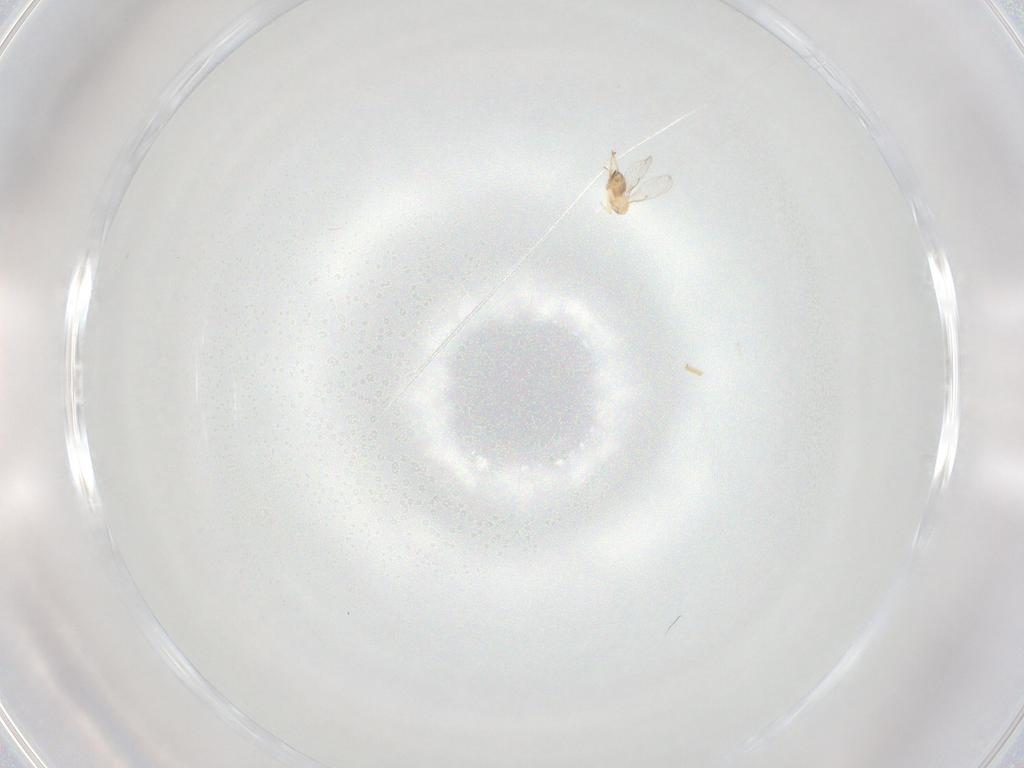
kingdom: Animalia
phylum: Arthropoda
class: Insecta
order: Hymenoptera
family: Trichogrammatidae
